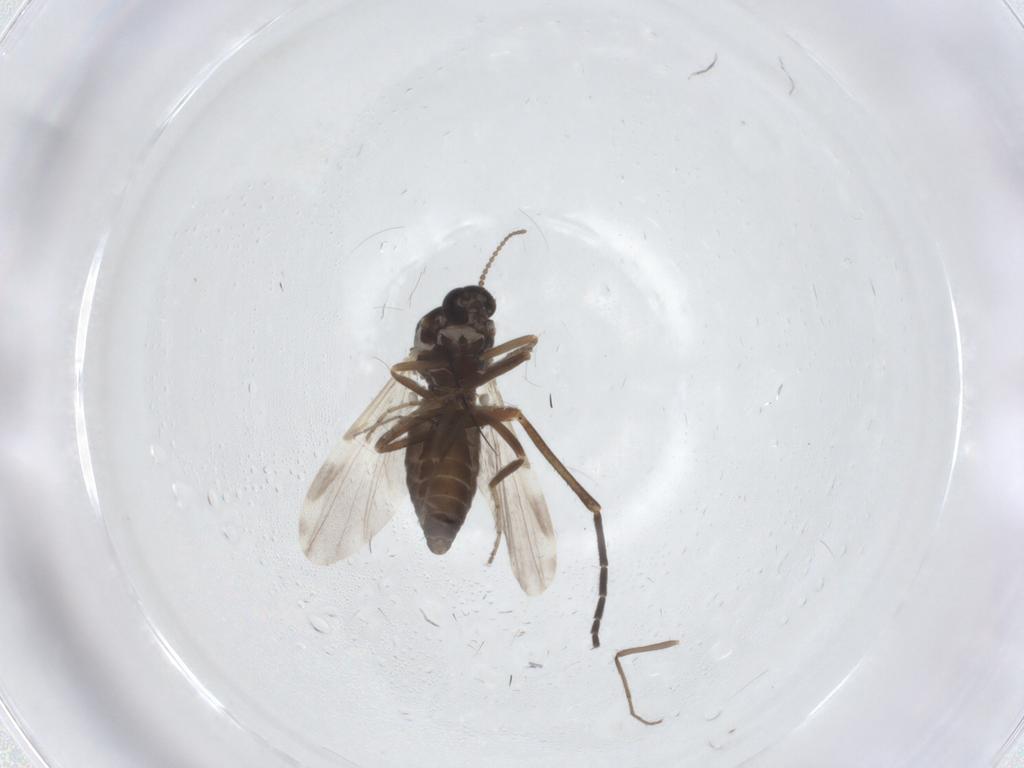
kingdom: Animalia
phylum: Arthropoda
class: Insecta
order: Diptera
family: Ceratopogonidae
